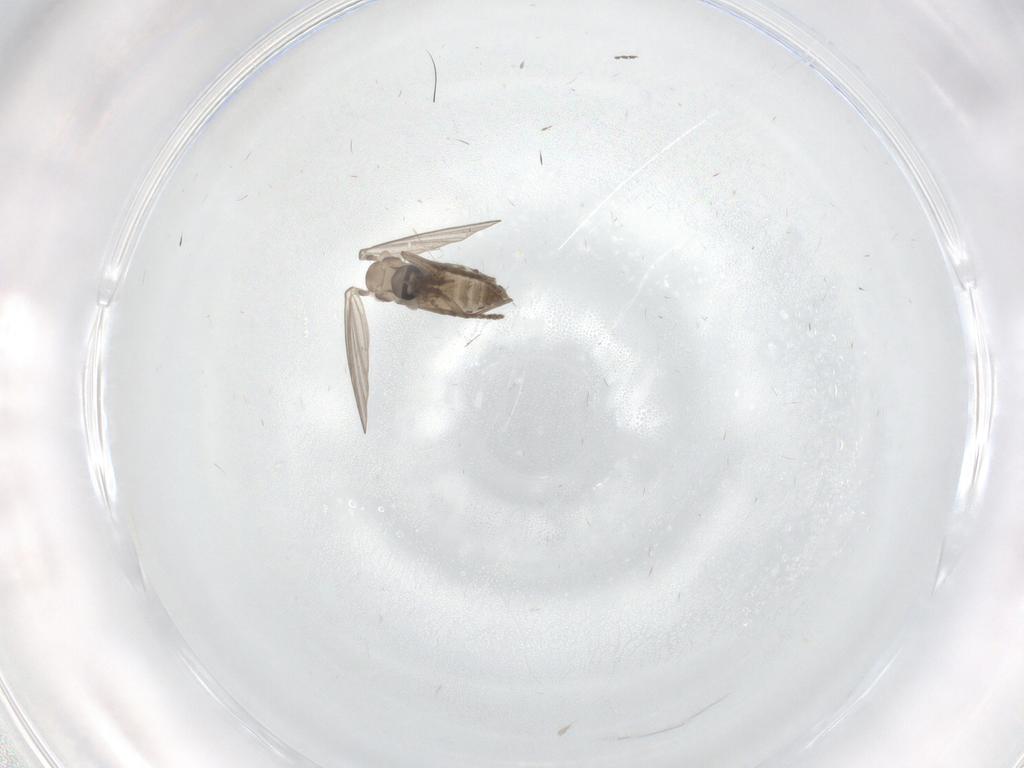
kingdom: Animalia
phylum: Arthropoda
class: Insecta
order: Diptera
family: Psychodidae
